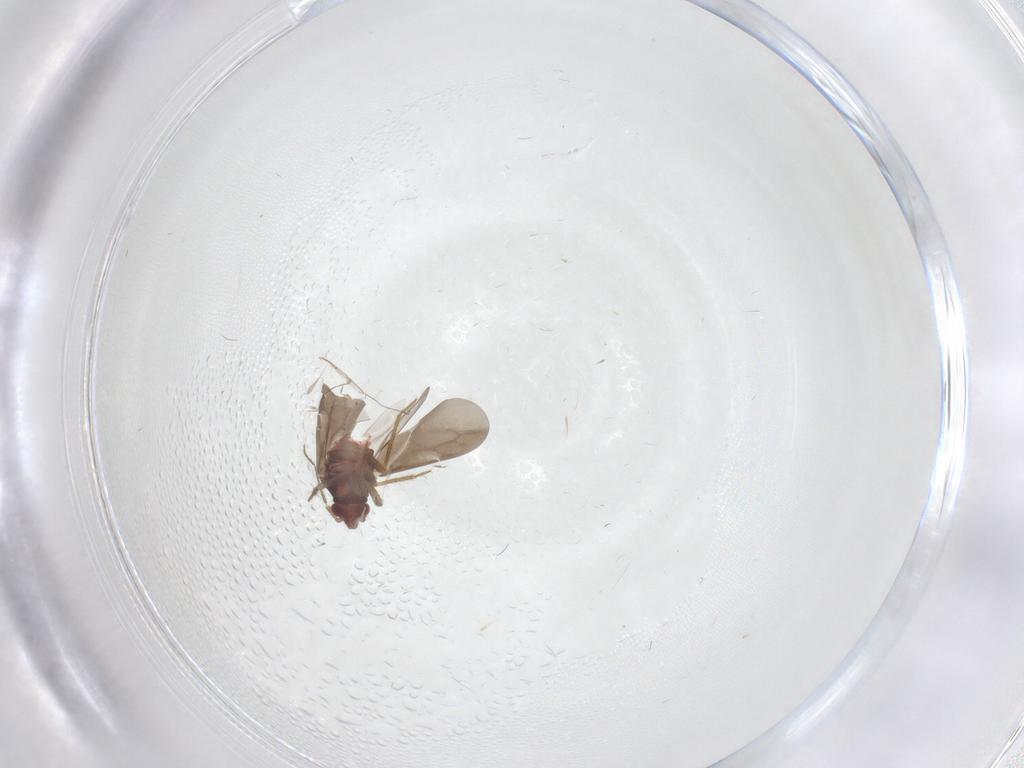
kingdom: Animalia
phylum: Arthropoda
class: Insecta
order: Hemiptera
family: Ceratocombidae
